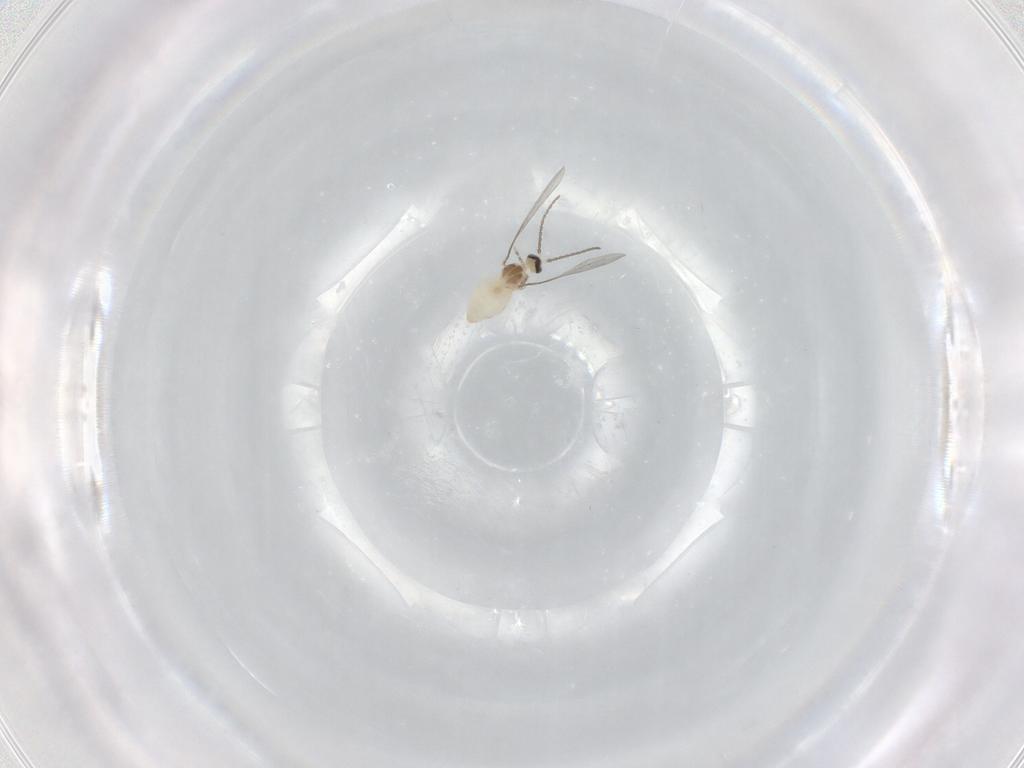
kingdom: Animalia
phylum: Arthropoda
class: Insecta
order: Diptera
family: Cecidomyiidae
